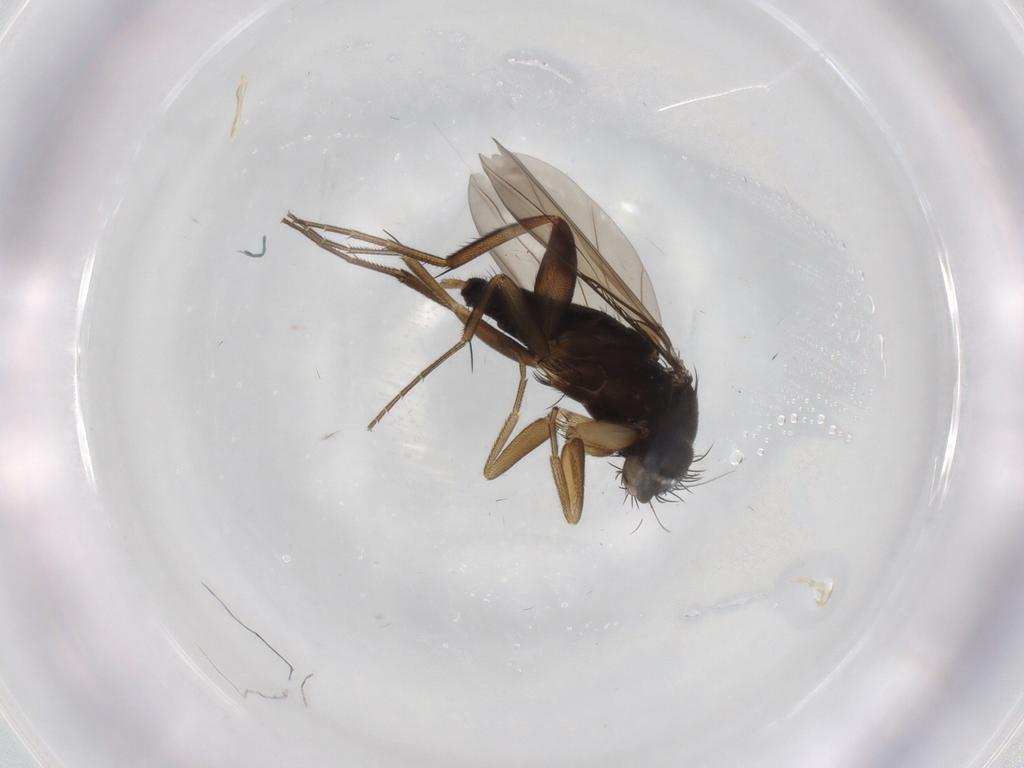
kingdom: Animalia
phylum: Arthropoda
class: Insecta
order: Diptera
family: Phoridae
